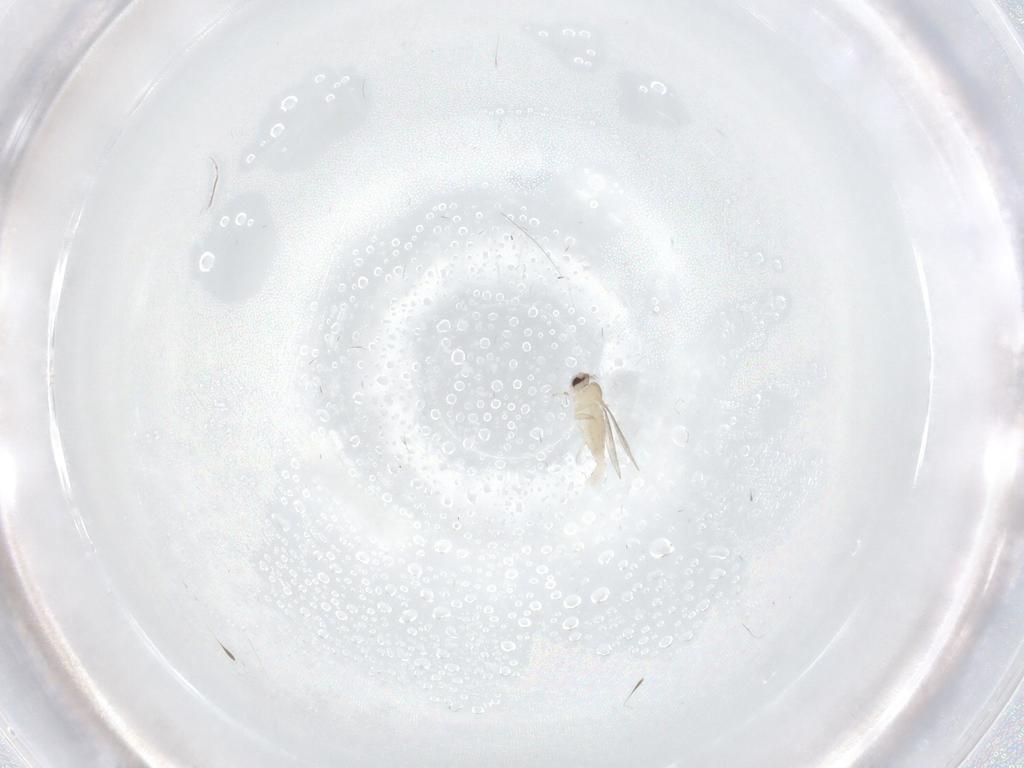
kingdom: Animalia
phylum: Arthropoda
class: Insecta
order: Diptera
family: Cecidomyiidae
